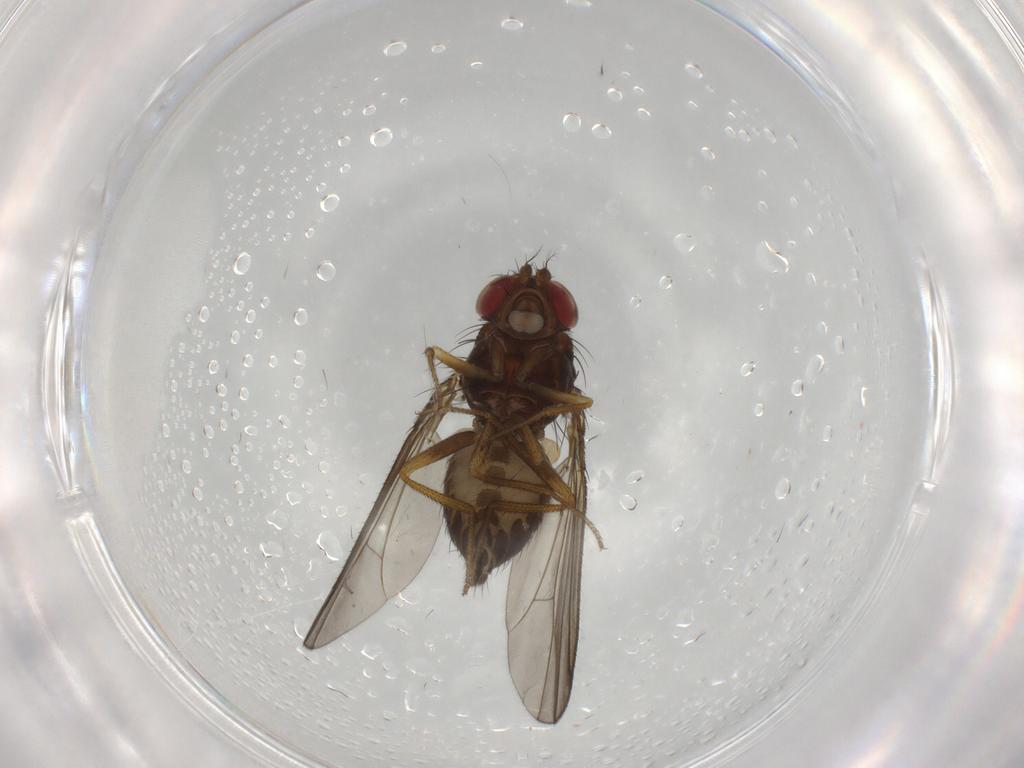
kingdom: Animalia
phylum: Arthropoda
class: Insecta
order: Diptera
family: Drosophilidae
